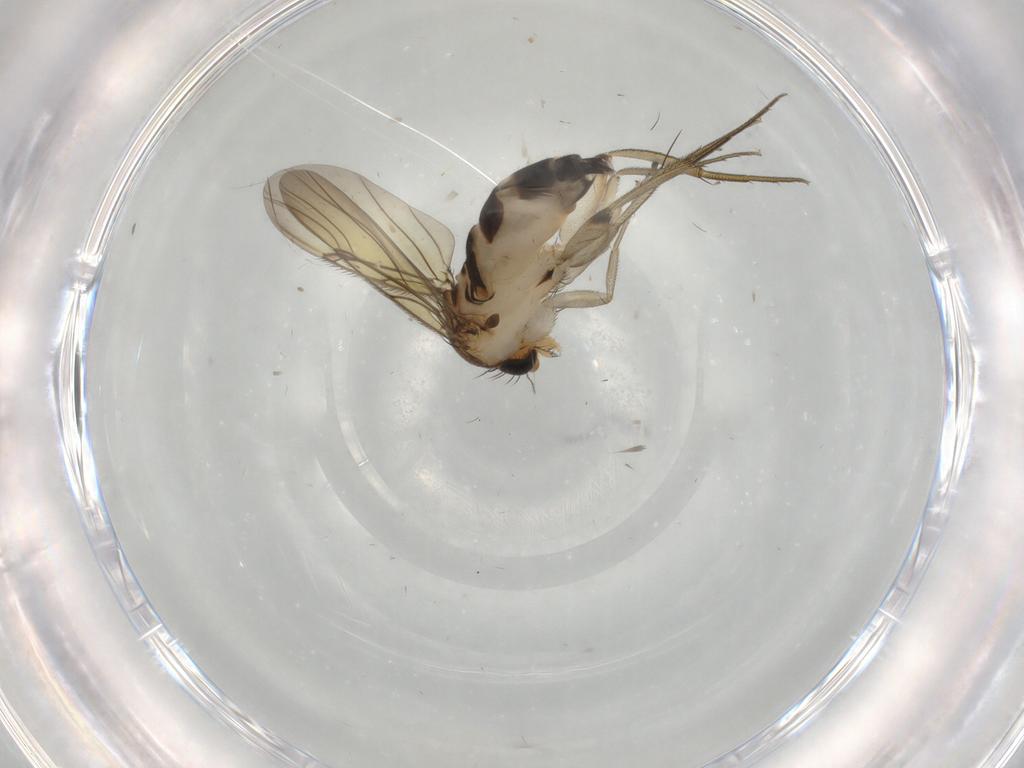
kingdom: Animalia
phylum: Arthropoda
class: Insecta
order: Diptera
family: Phoridae
